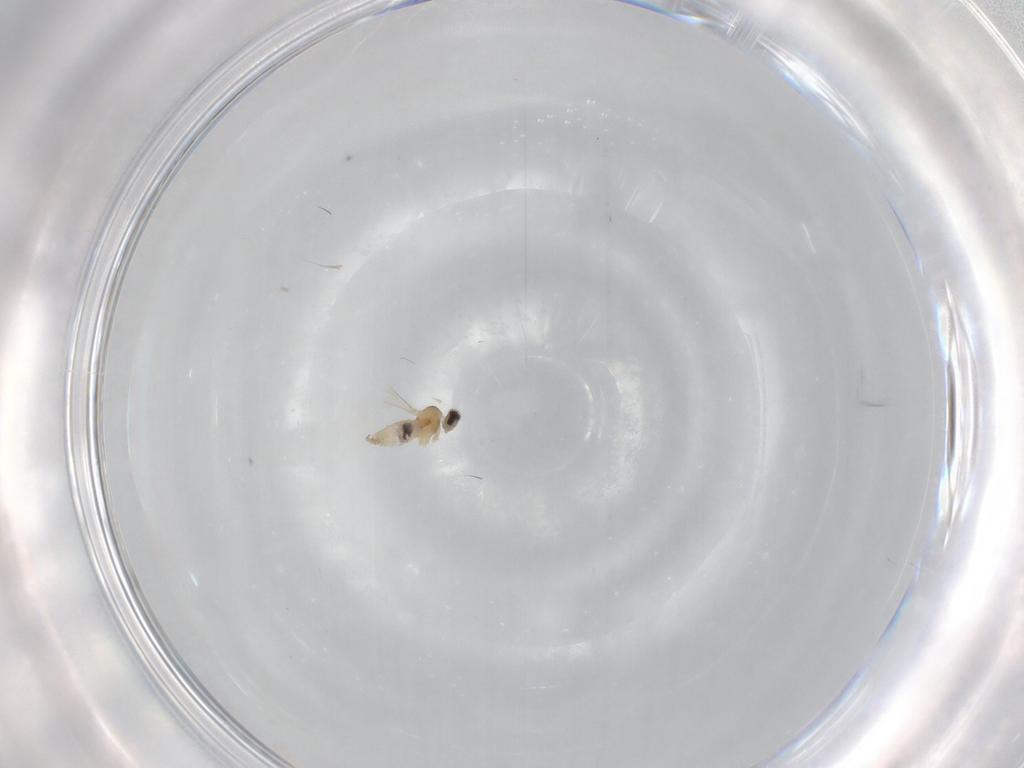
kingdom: Animalia
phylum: Arthropoda
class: Insecta
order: Diptera
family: Cecidomyiidae
